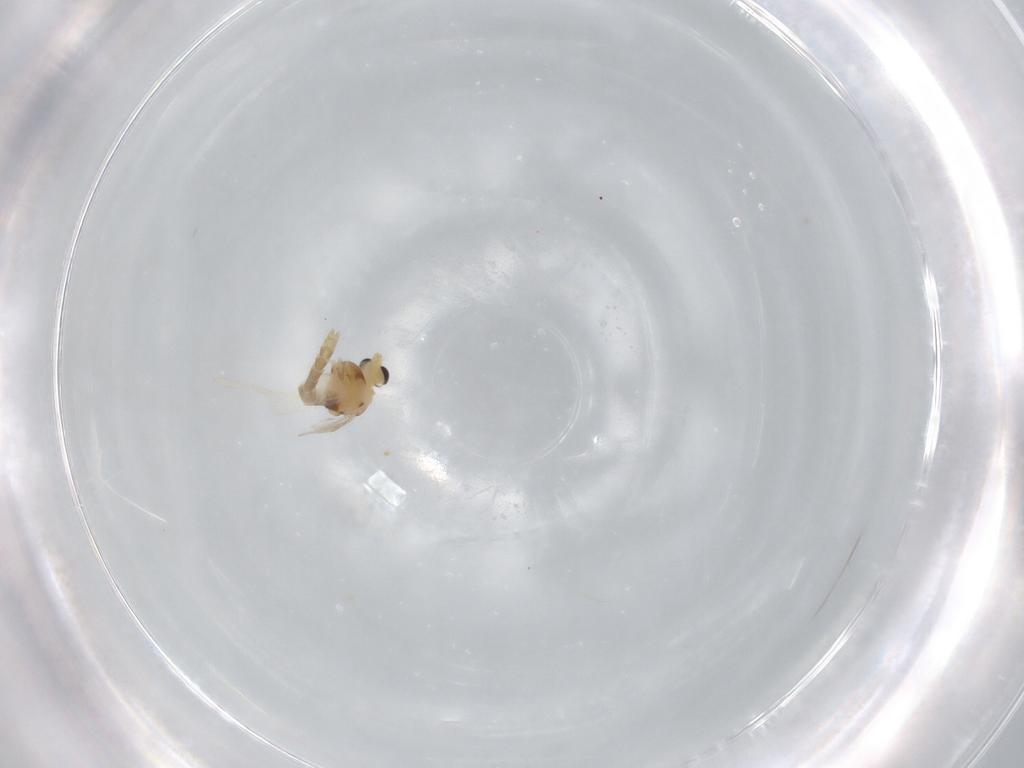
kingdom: Animalia
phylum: Arthropoda
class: Insecta
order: Diptera
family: Chironomidae
